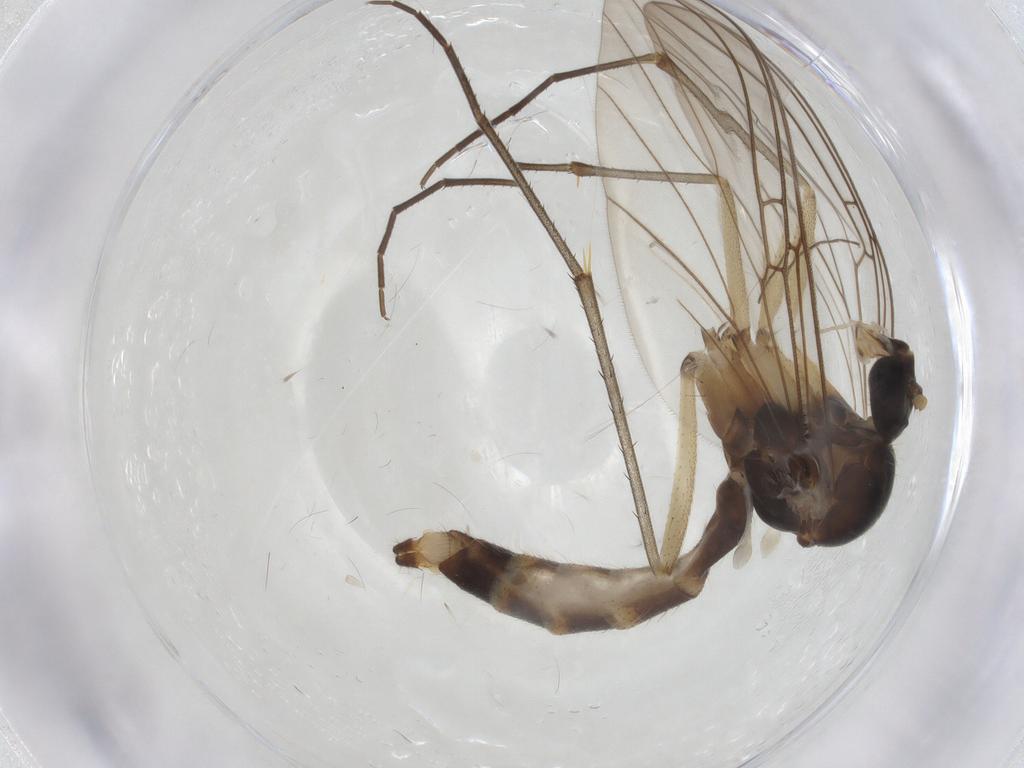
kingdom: Animalia
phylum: Arthropoda
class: Insecta
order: Diptera
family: Mycetophilidae
